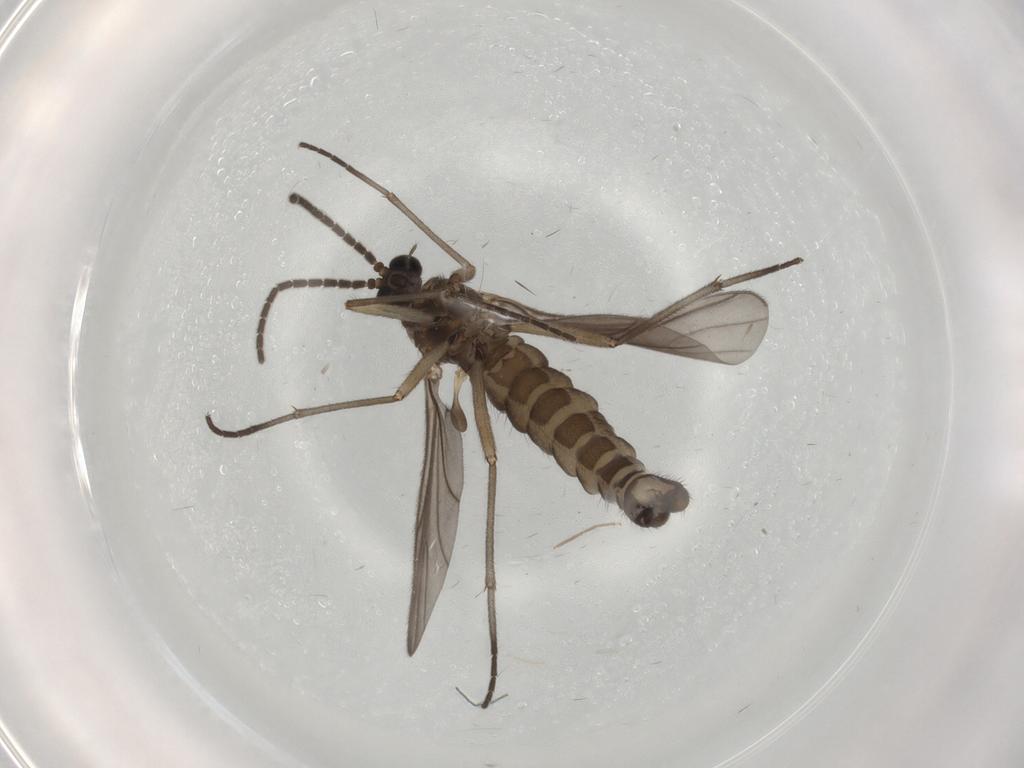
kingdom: Animalia
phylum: Arthropoda
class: Insecta
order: Diptera
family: Sciaridae
